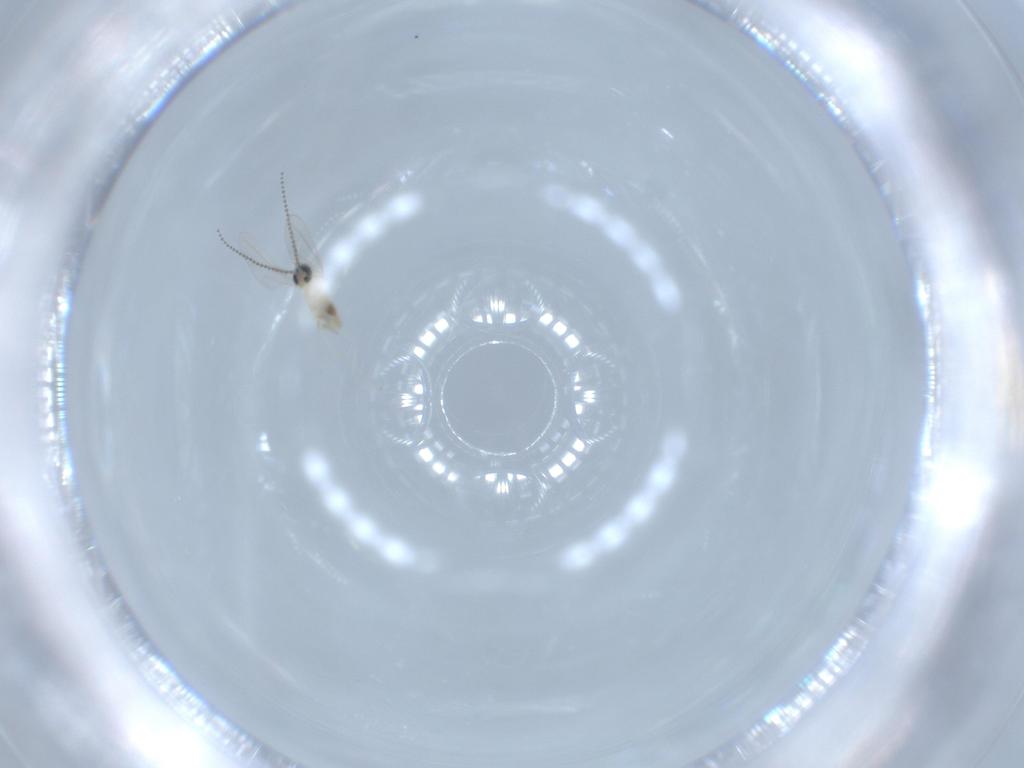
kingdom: Animalia
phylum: Arthropoda
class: Insecta
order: Diptera
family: Cecidomyiidae
